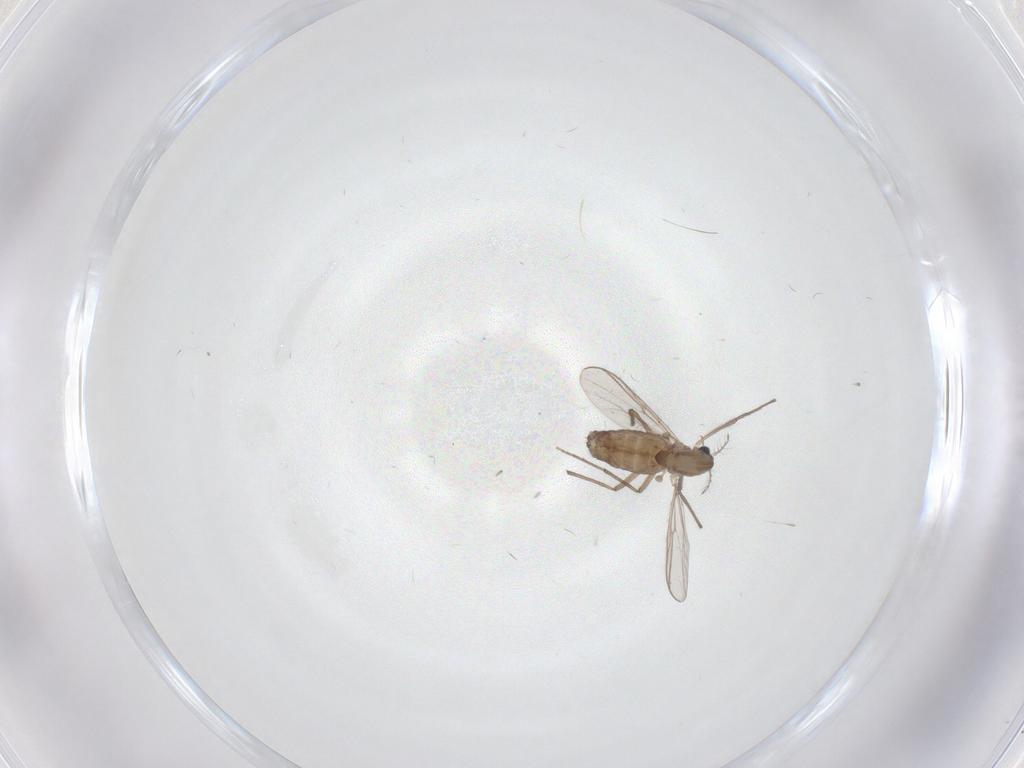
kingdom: Animalia
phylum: Arthropoda
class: Insecta
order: Diptera
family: Chironomidae
